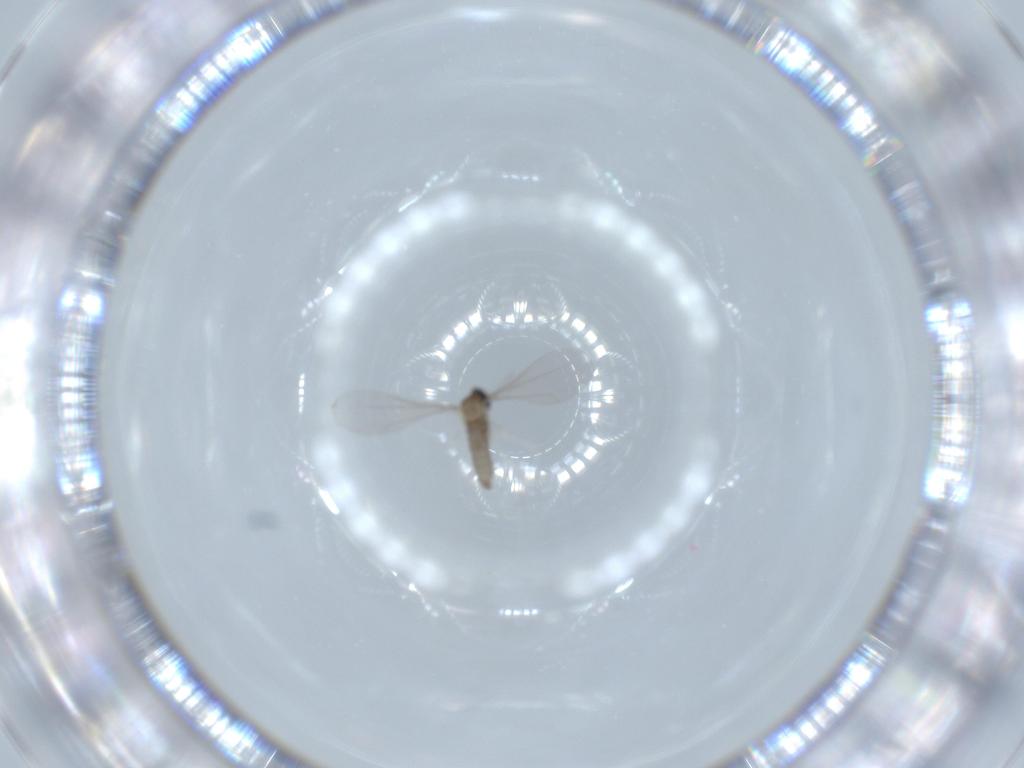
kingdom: Animalia
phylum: Arthropoda
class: Insecta
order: Diptera
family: Cecidomyiidae
